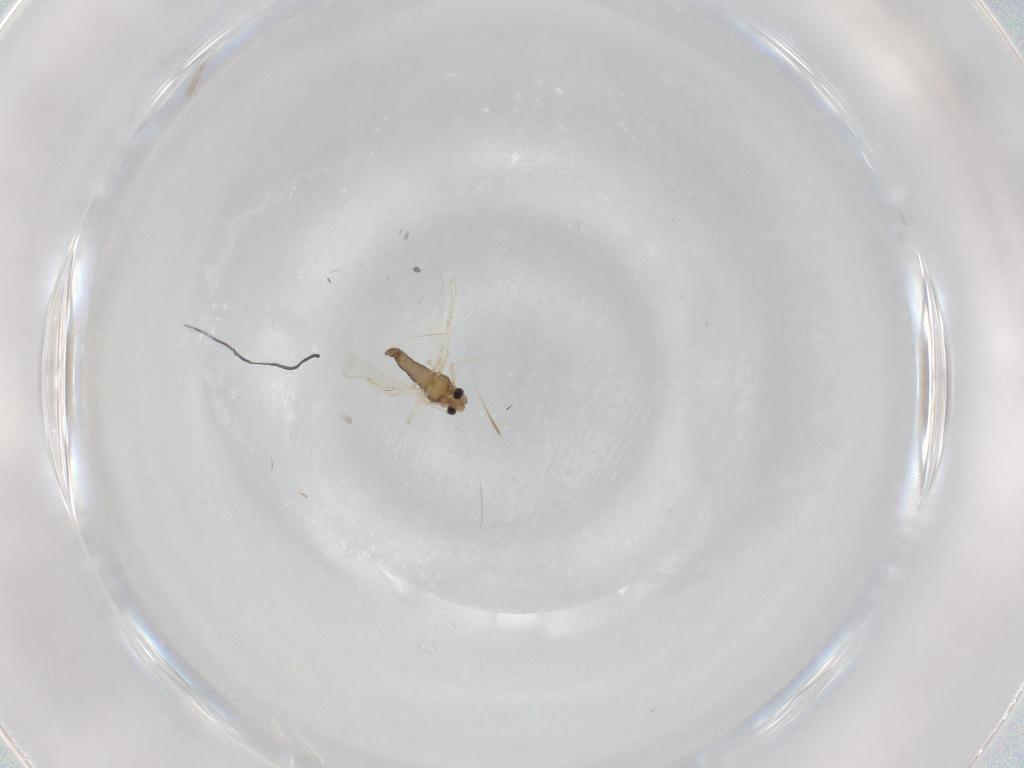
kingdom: Animalia
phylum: Arthropoda
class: Insecta
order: Diptera
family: Chironomidae
